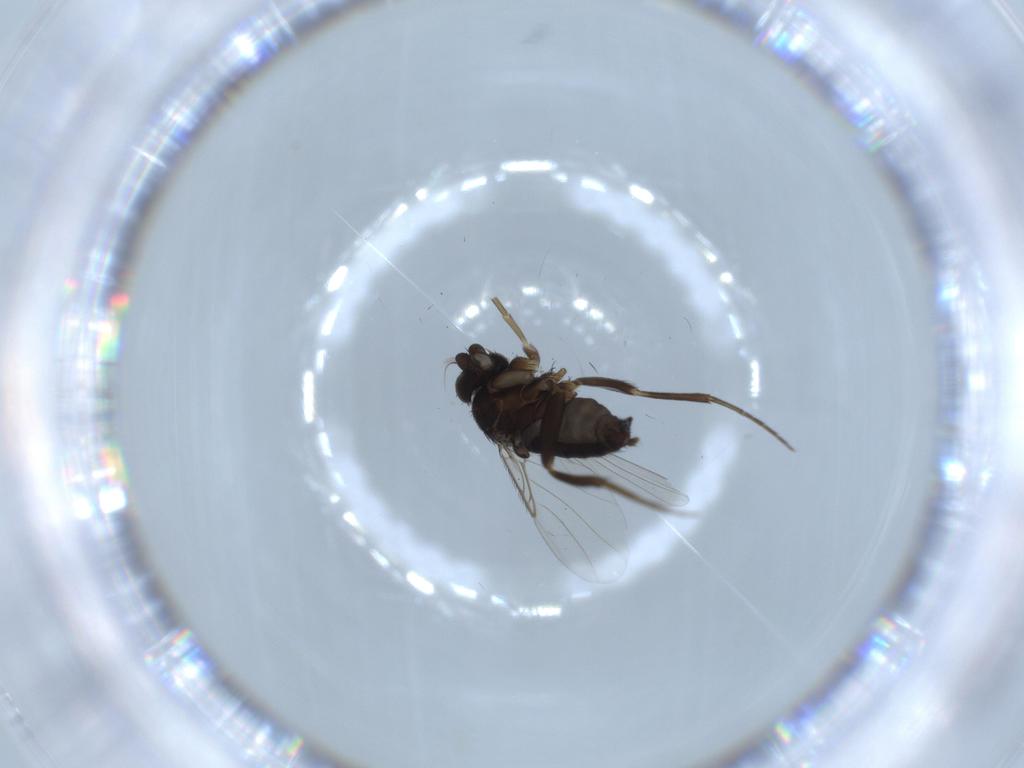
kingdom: Animalia
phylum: Arthropoda
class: Insecta
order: Diptera
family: Phoridae
